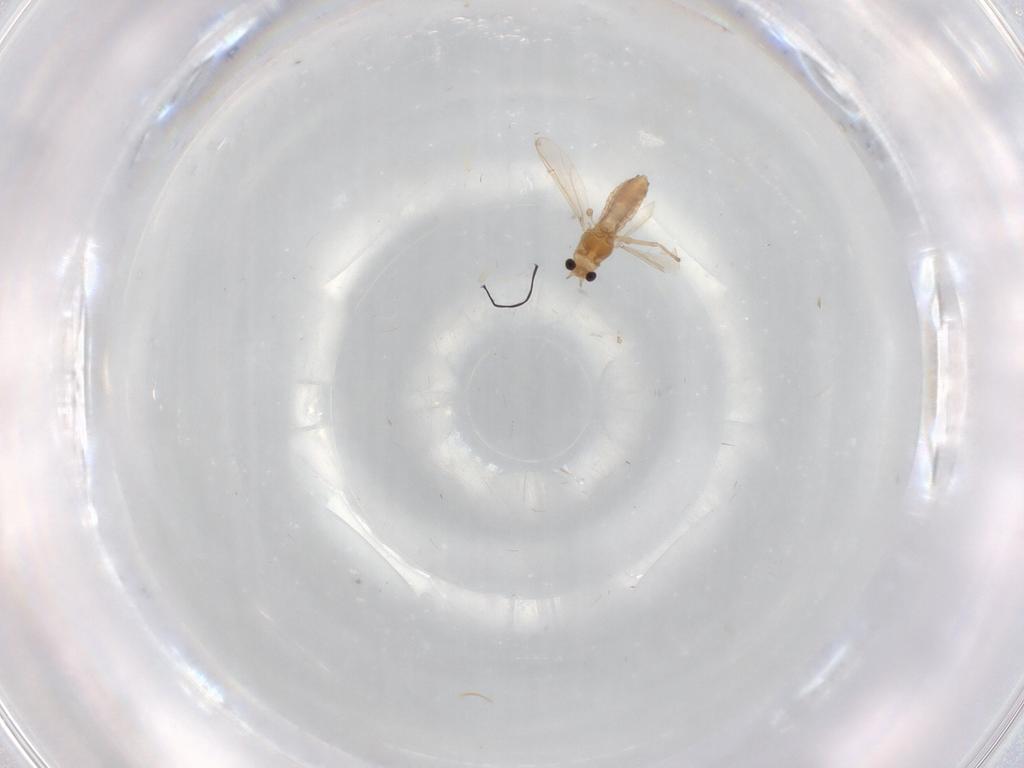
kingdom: Animalia
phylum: Arthropoda
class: Insecta
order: Diptera
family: Chironomidae
